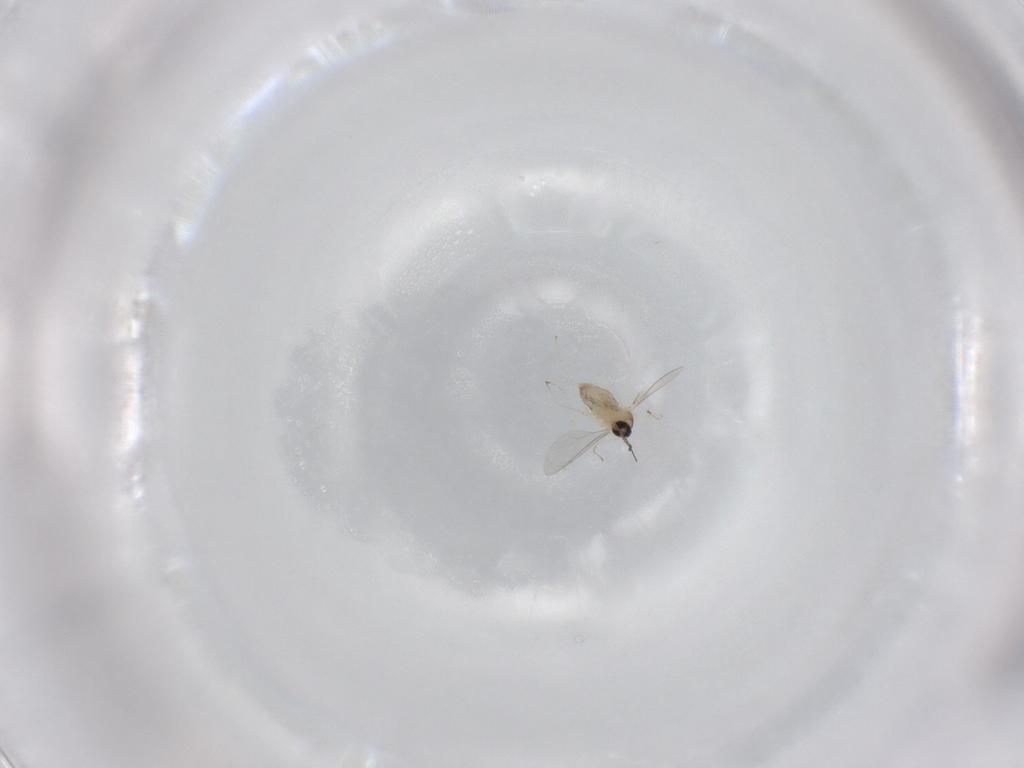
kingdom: Animalia
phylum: Arthropoda
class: Insecta
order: Diptera
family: Cecidomyiidae
